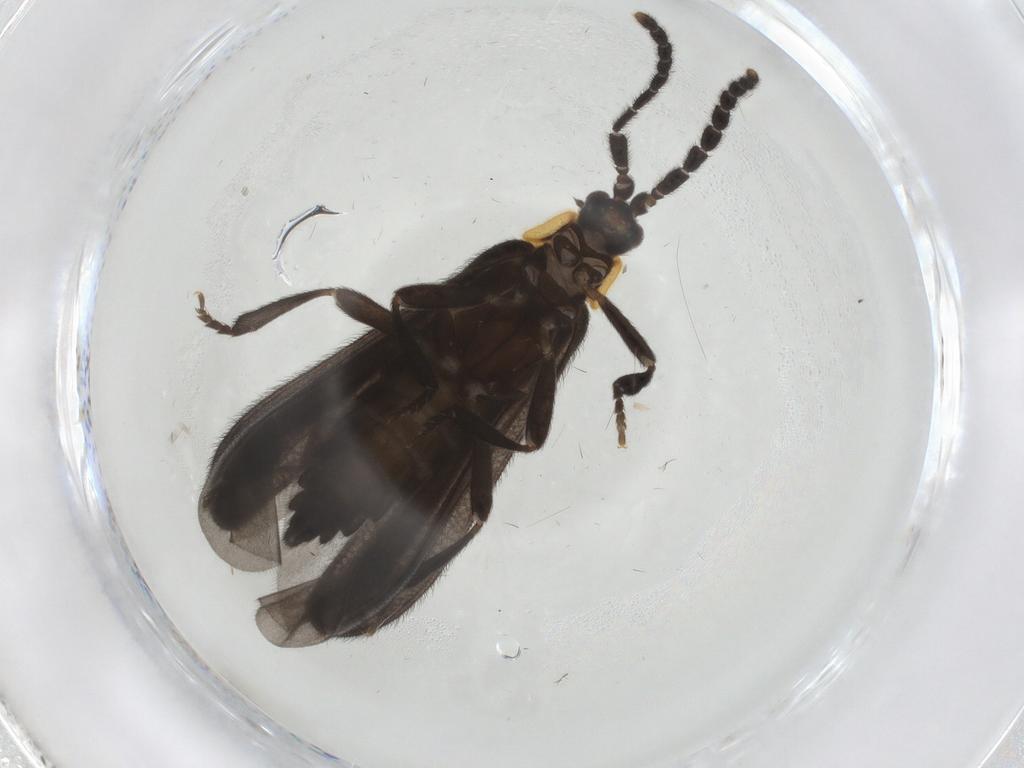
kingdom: Animalia
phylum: Arthropoda
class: Insecta
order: Coleoptera
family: Lycidae
